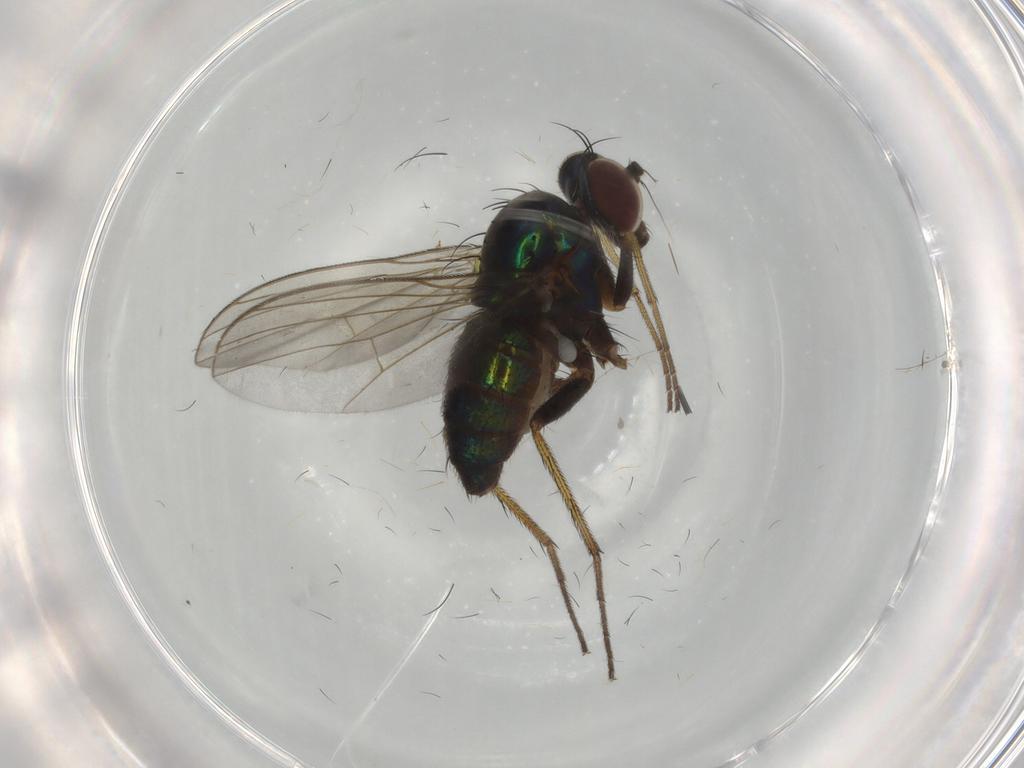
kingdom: Animalia
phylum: Arthropoda
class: Insecta
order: Diptera
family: Dolichopodidae
